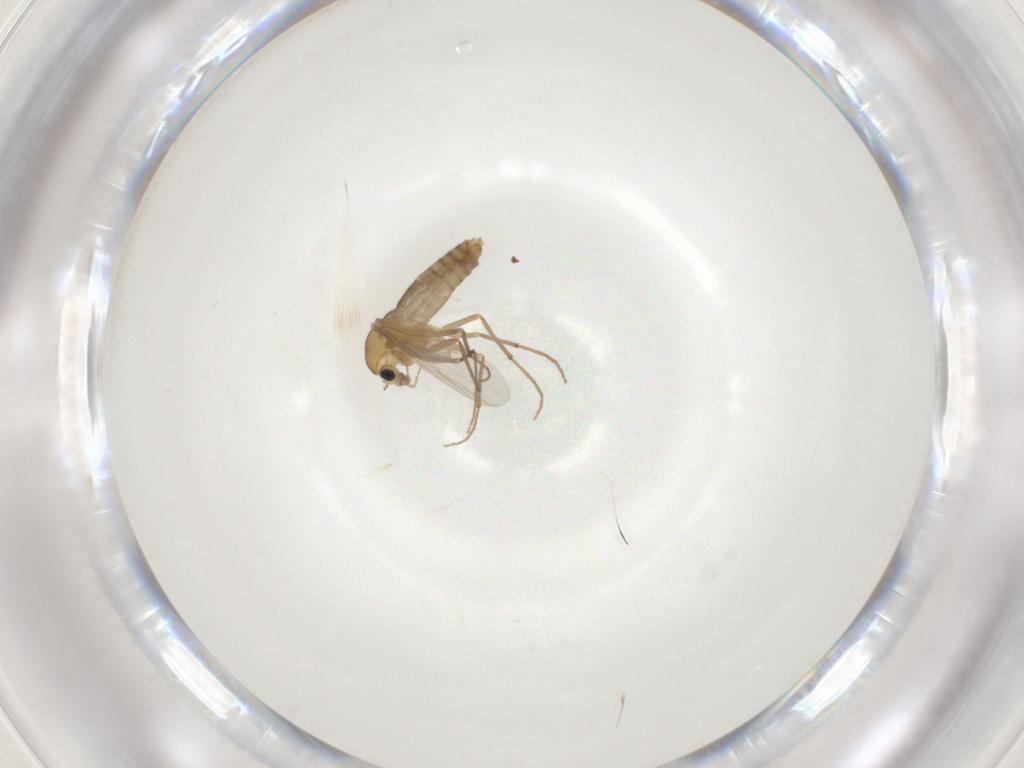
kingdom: Animalia
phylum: Arthropoda
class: Insecta
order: Diptera
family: Chironomidae
